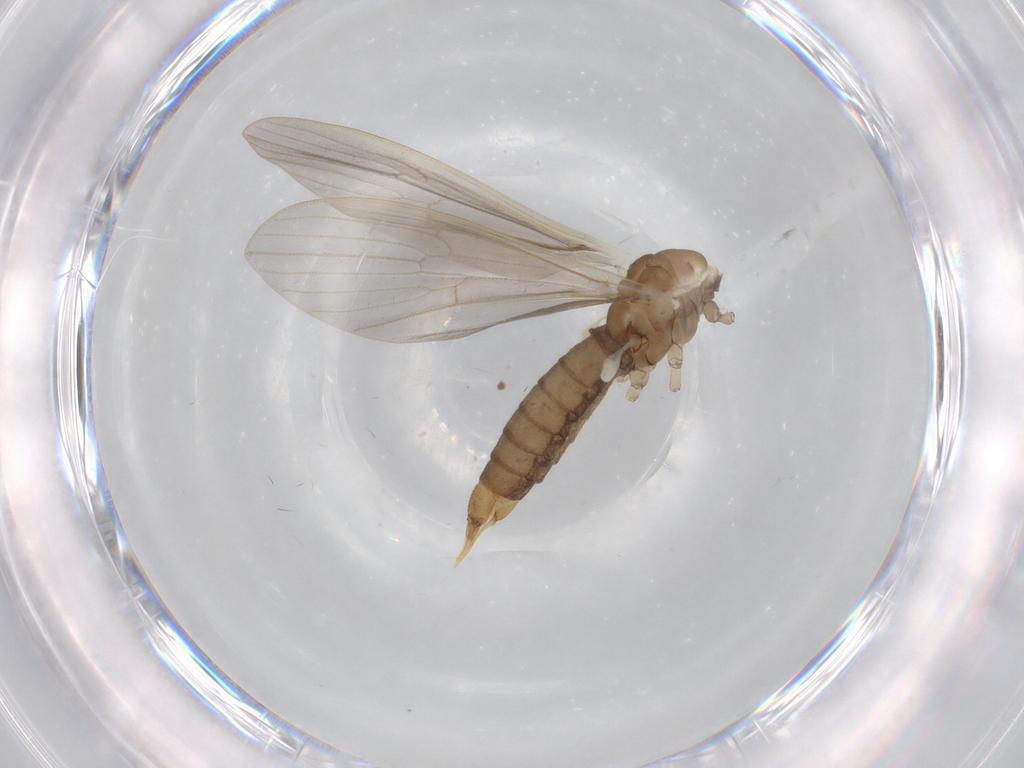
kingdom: Animalia
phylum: Arthropoda
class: Insecta
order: Diptera
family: Limoniidae
